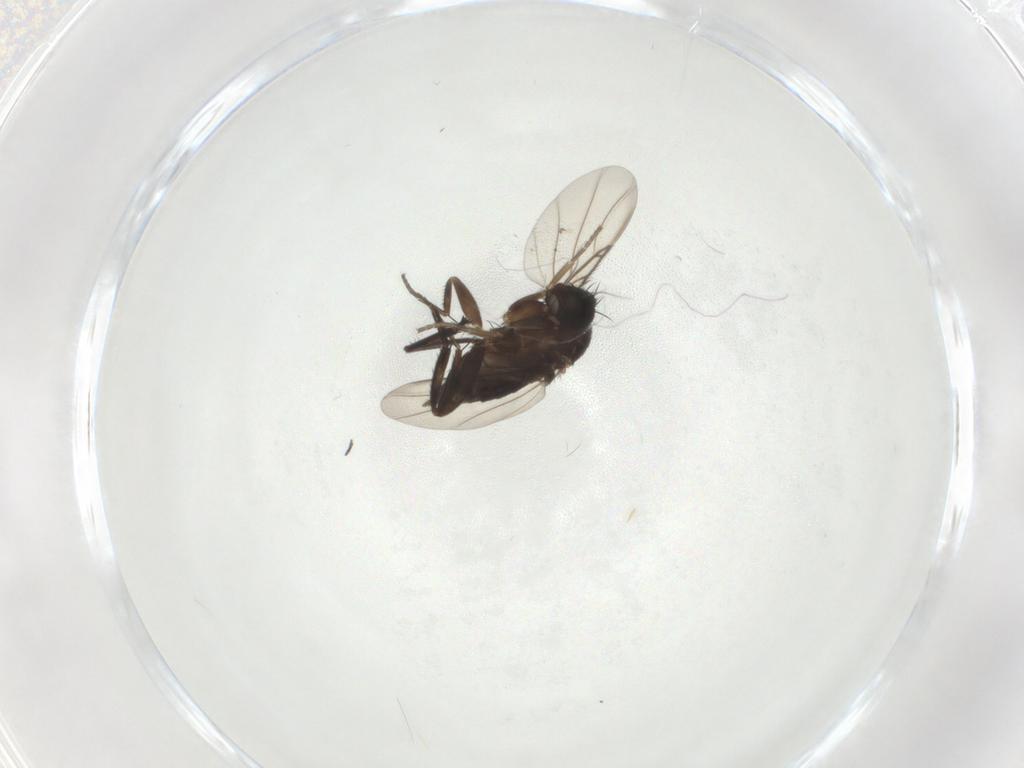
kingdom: Animalia
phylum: Arthropoda
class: Insecta
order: Diptera
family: Phoridae
